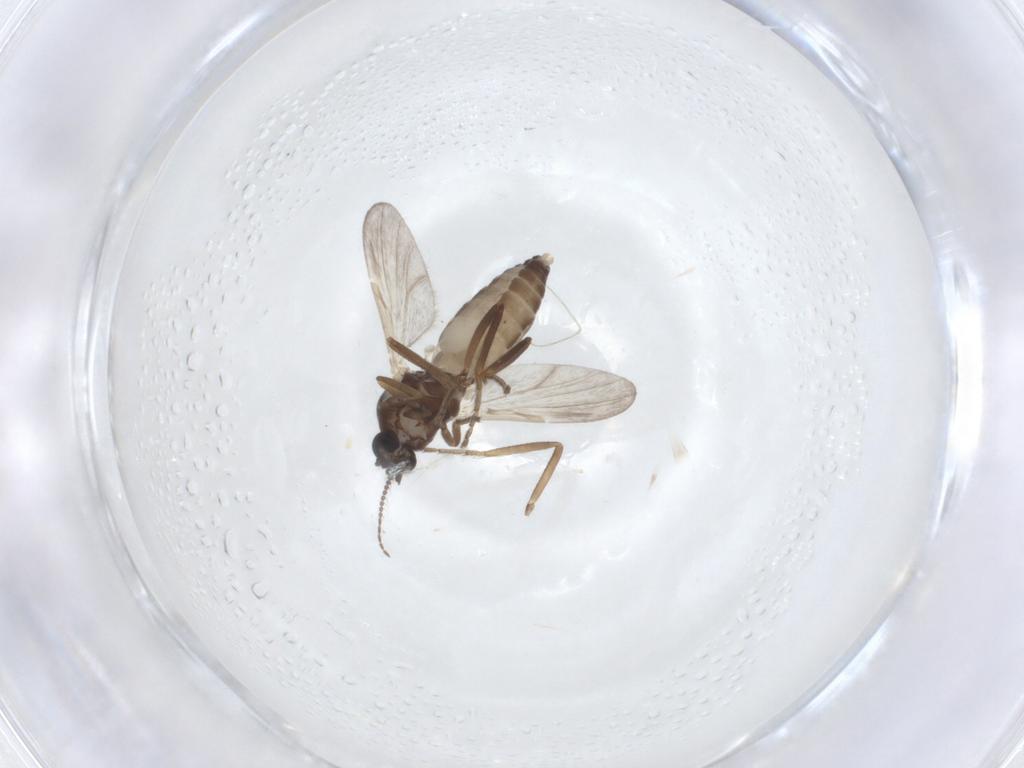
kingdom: Animalia
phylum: Arthropoda
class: Insecta
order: Diptera
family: Ceratopogonidae
